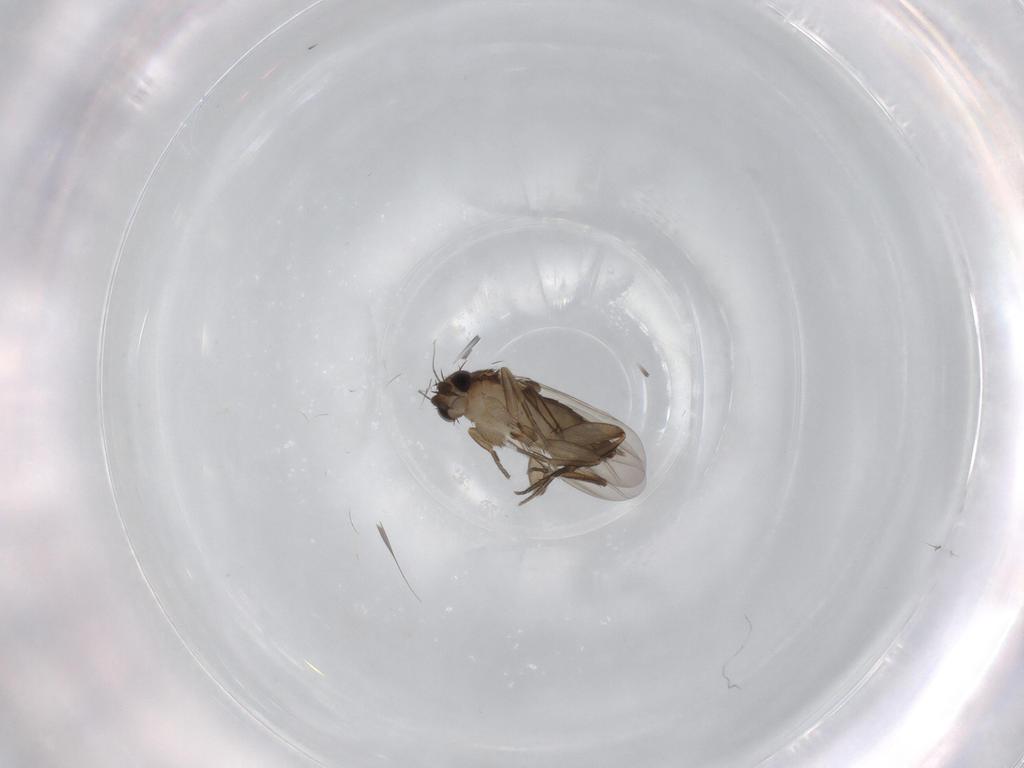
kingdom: Animalia
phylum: Arthropoda
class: Insecta
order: Diptera
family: Phoridae
